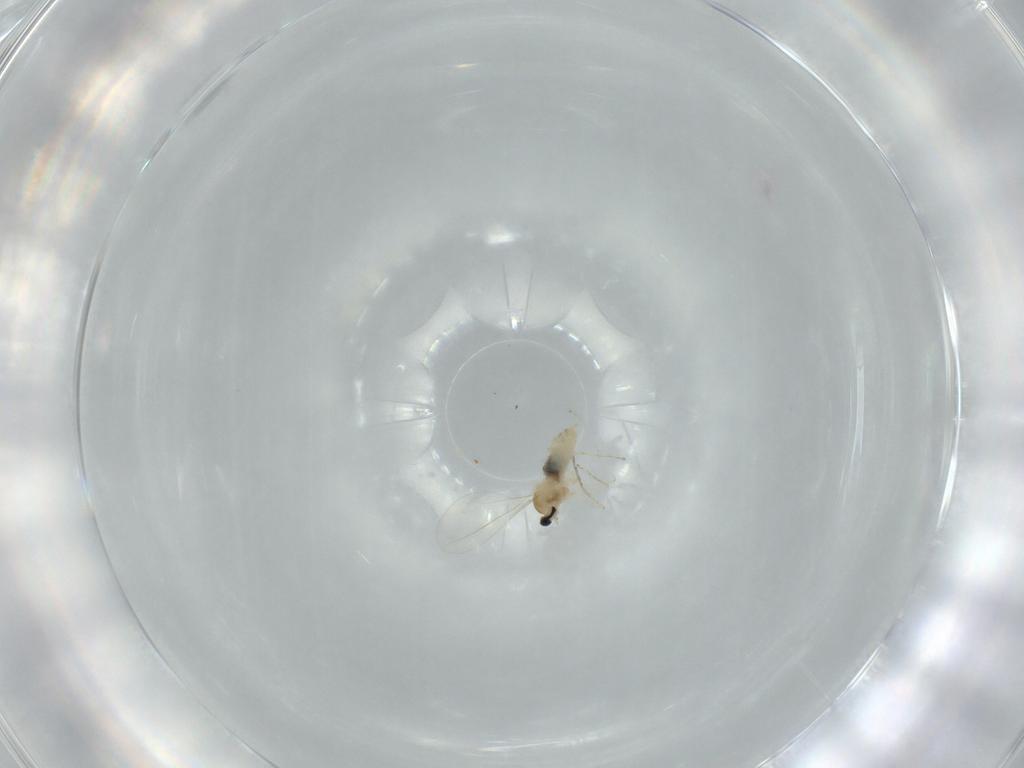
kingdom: Animalia
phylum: Arthropoda
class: Insecta
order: Diptera
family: Cecidomyiidae
